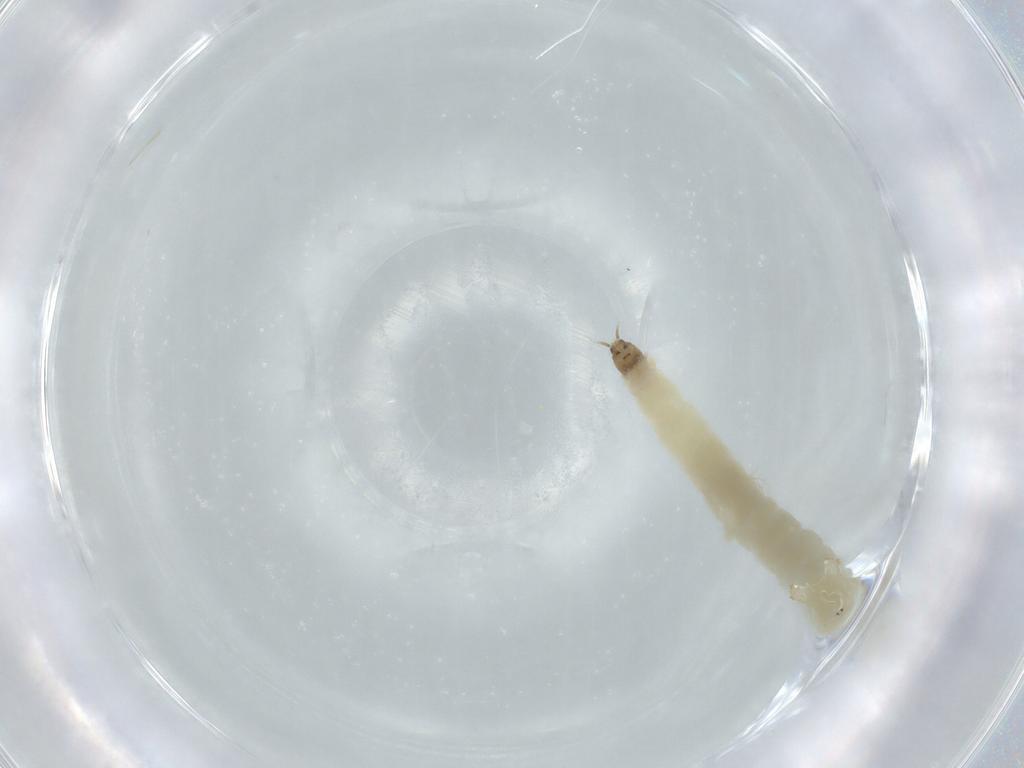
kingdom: Animalia
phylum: Arthropoda
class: Insecta
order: Diptera
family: Chironomidae
